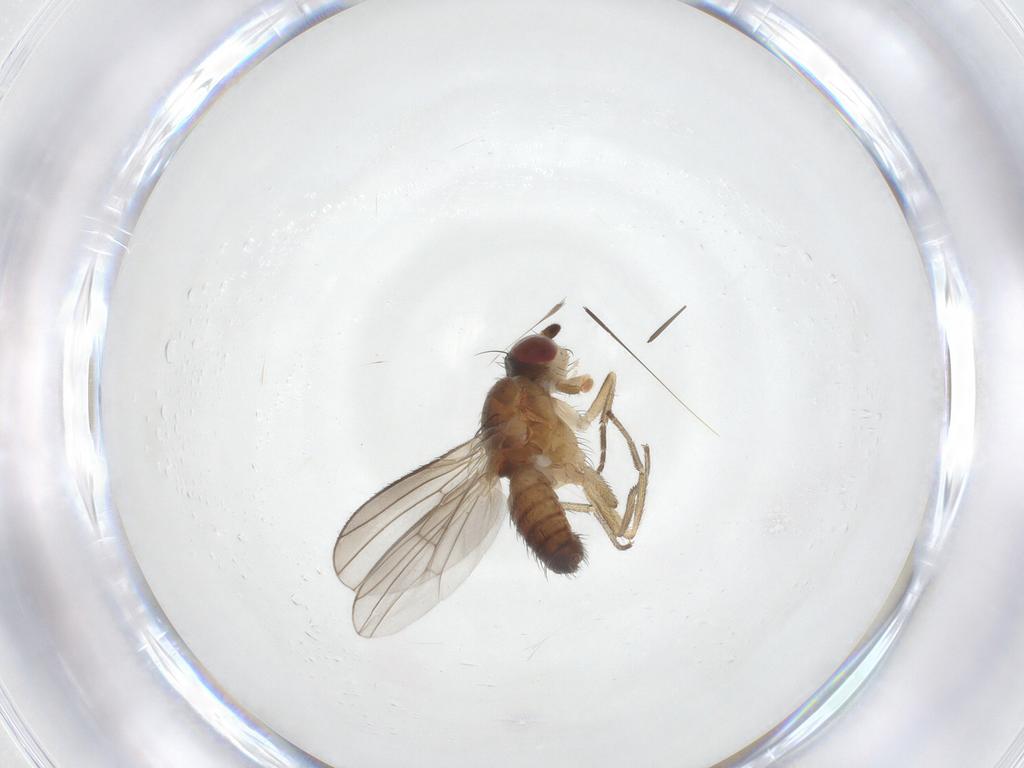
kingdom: Animalia
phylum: Arthropoda
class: Insecta
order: Diptera
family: Heleomyzidae
